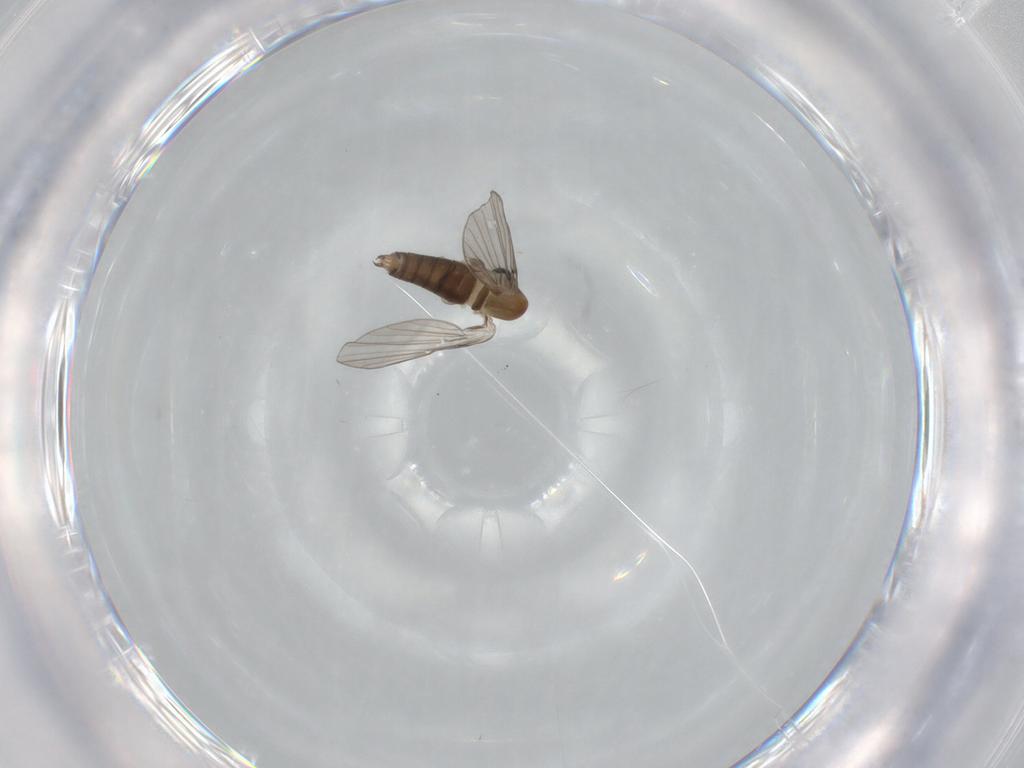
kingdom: Animalia
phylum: Arthropoda
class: Insecta
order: Diptera
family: Psychodidae
